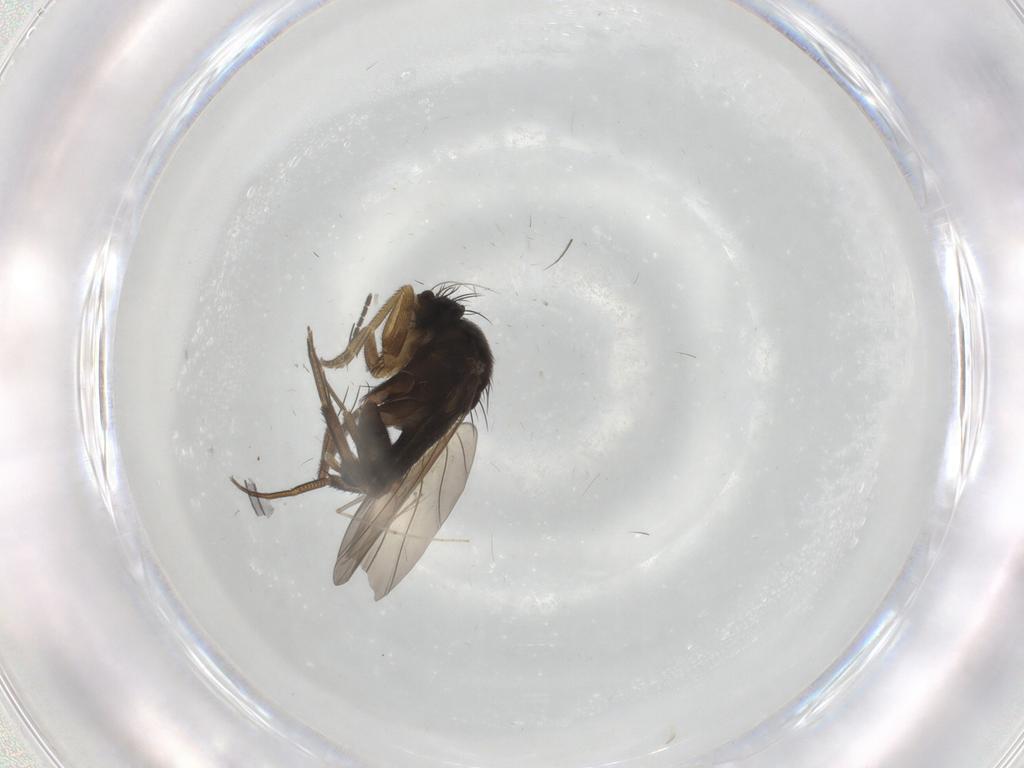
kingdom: Animalia
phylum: Arthropoda
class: Insecta
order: Diptera
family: Phoridae
